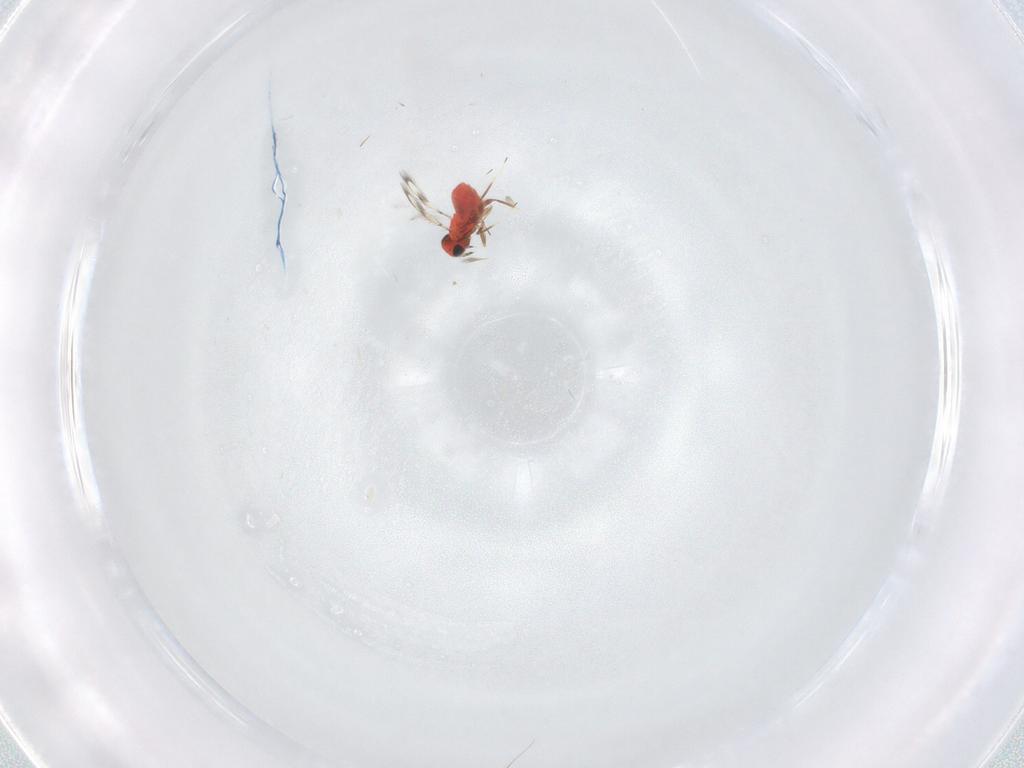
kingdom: Animalia
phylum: Arthropoda
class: Insecta
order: Hymenoptera
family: Trichogrammatidae
